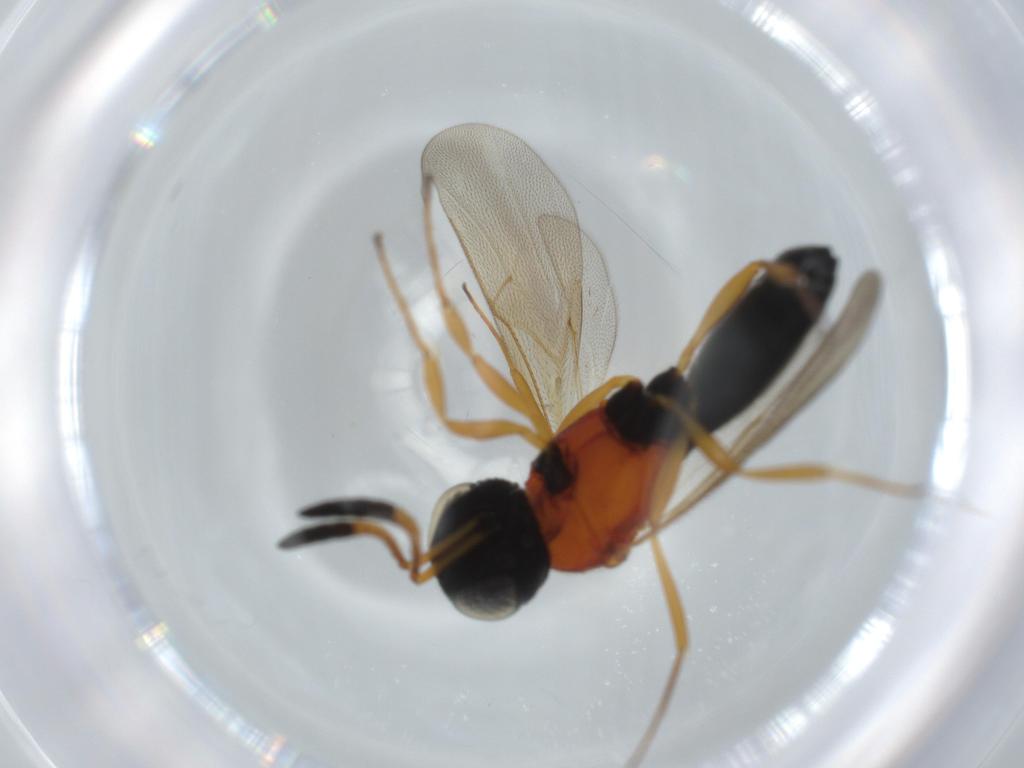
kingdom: Animalia
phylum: Arthropoda
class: Insecta
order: Hymenoptera
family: Scelionidae
